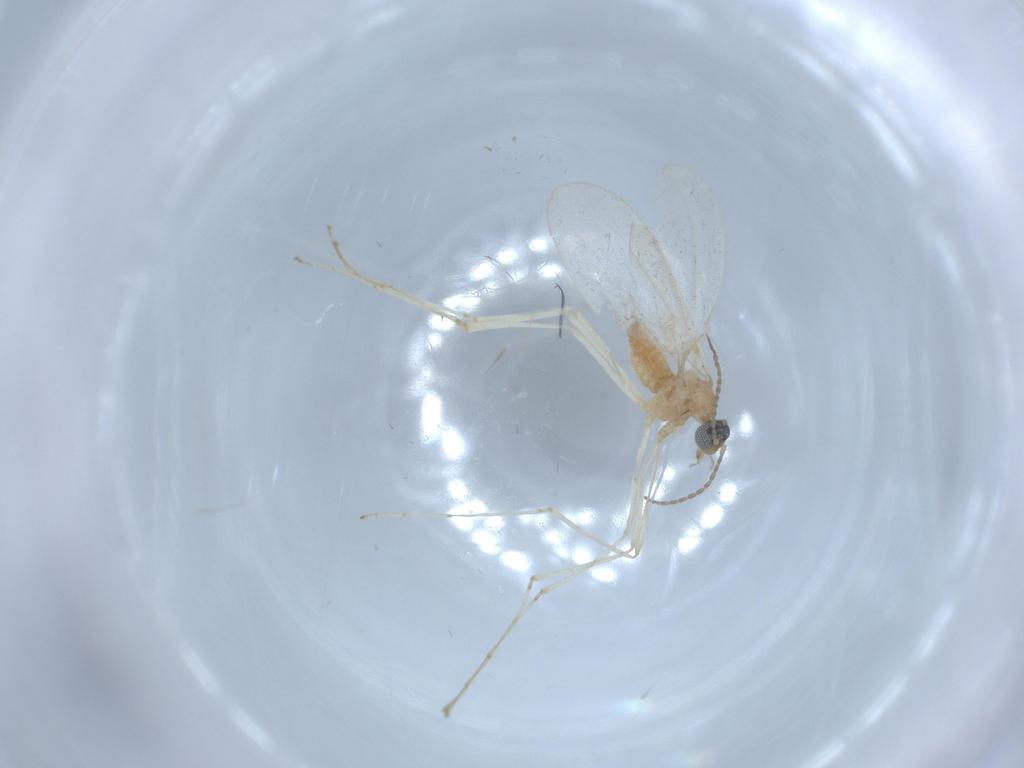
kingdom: Animalia
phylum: Arthropoda
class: Insecta
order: Diptera
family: Cecidomyiidae
